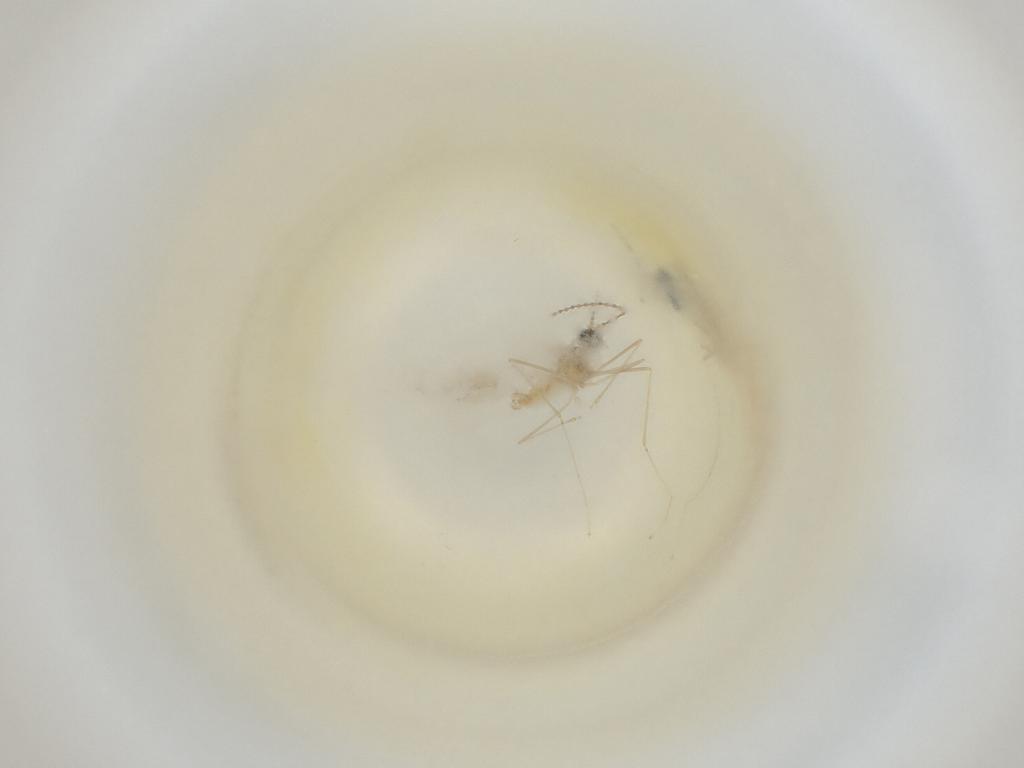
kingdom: Animalia
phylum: Arthropoda
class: Insecta
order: Diptera
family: Cecidomyiidae
